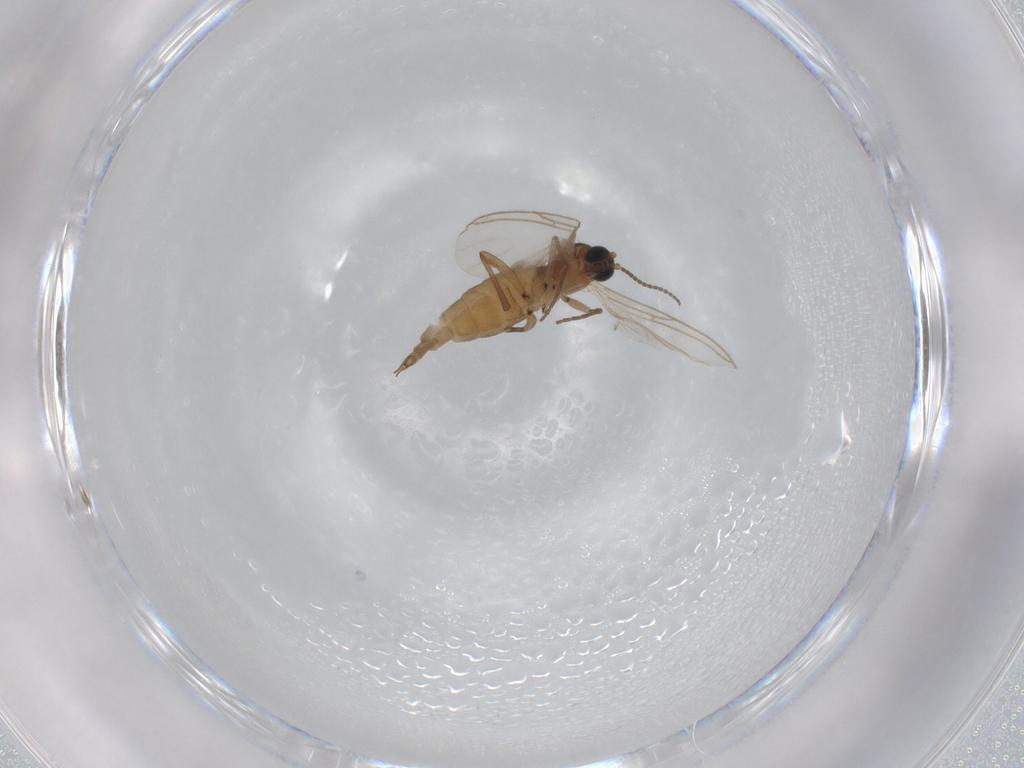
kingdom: Animalia
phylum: Arthropoda
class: Insecta
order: Diptera
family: Sciaridae
